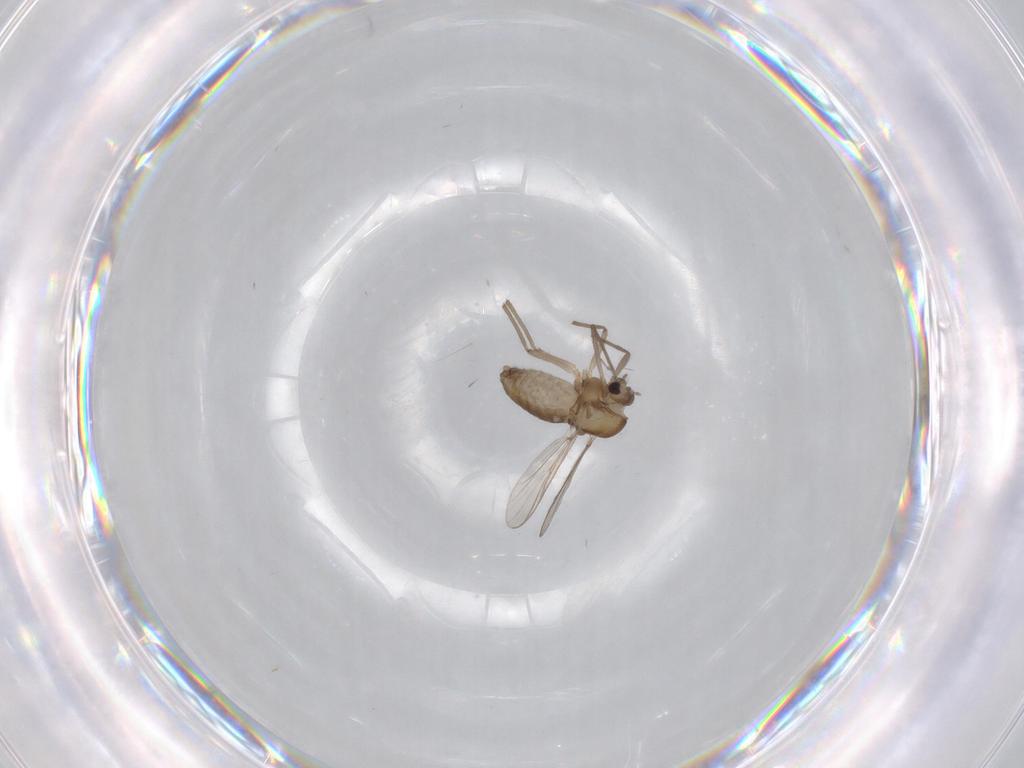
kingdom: Animalia
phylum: Arthropoda
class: Insecta
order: Diptera
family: Chironomidae
